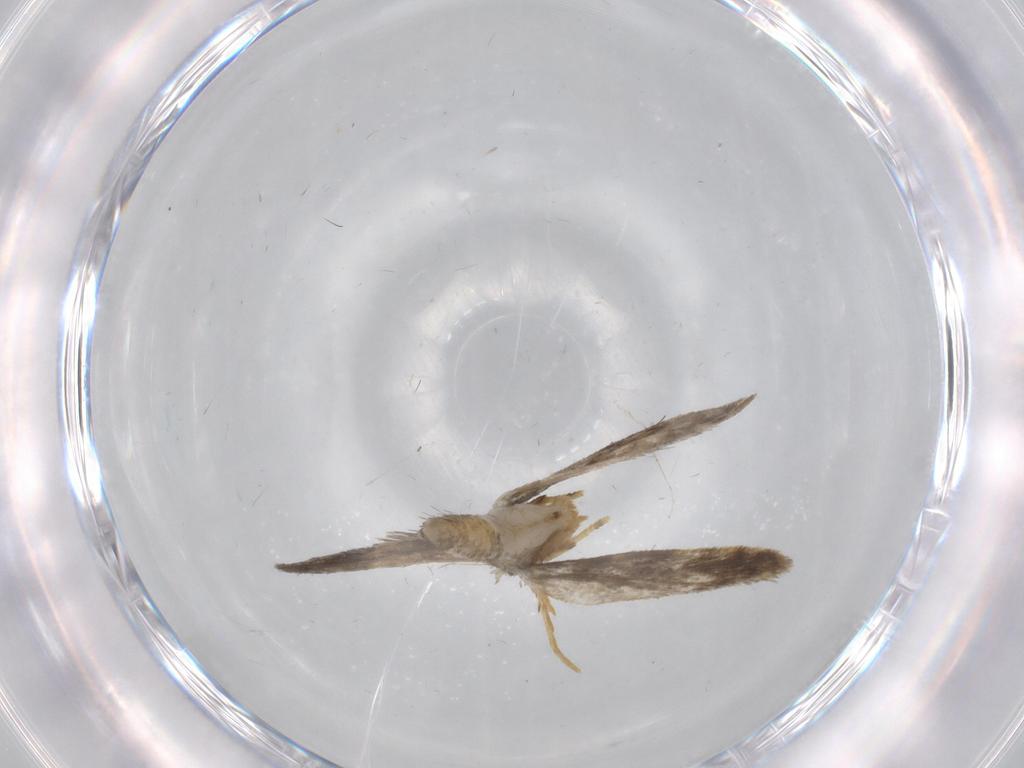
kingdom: Animalia
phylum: Arthropoda
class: Insecta
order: Lepidoptera
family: Psychidae
